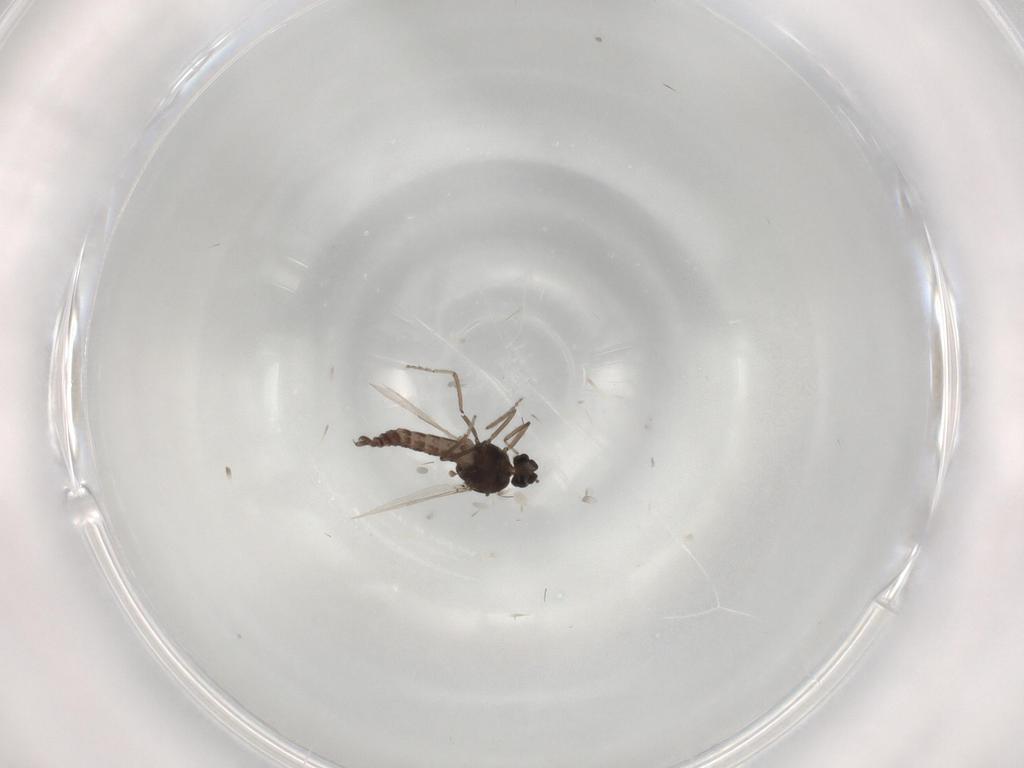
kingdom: Animalia
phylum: Arthropoda
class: Insecta
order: Diptera
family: Ceratopogonidae
